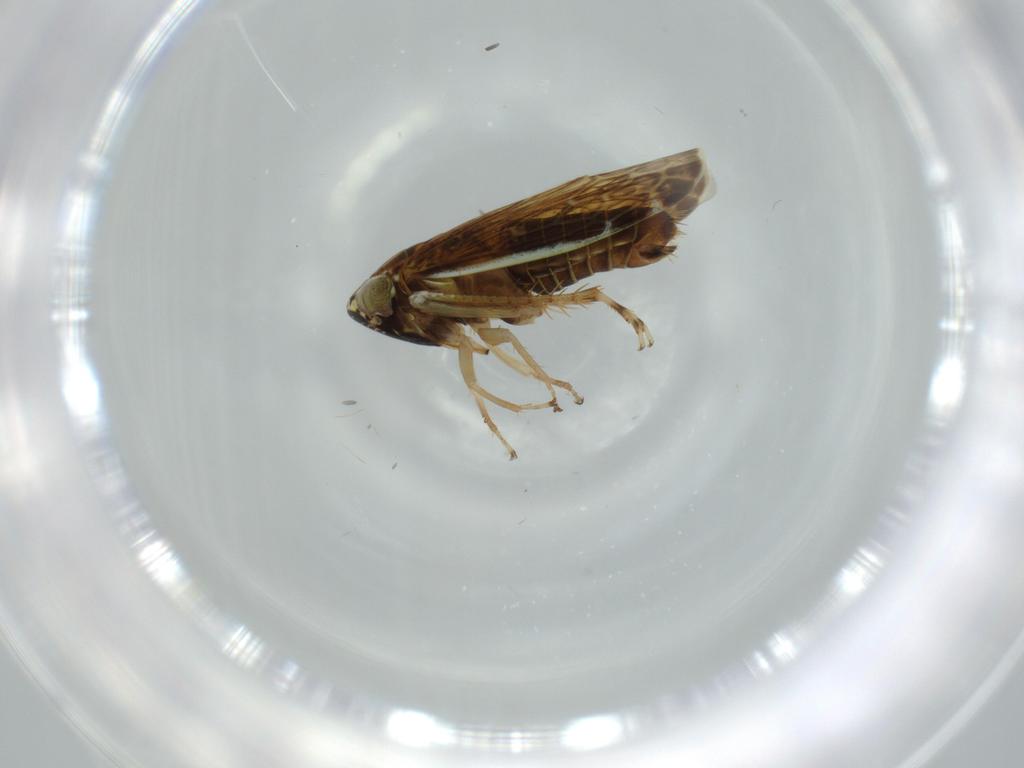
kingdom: Animalia
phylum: Arthropoda
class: Insecta
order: Hemiptera
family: Cicadellidae
